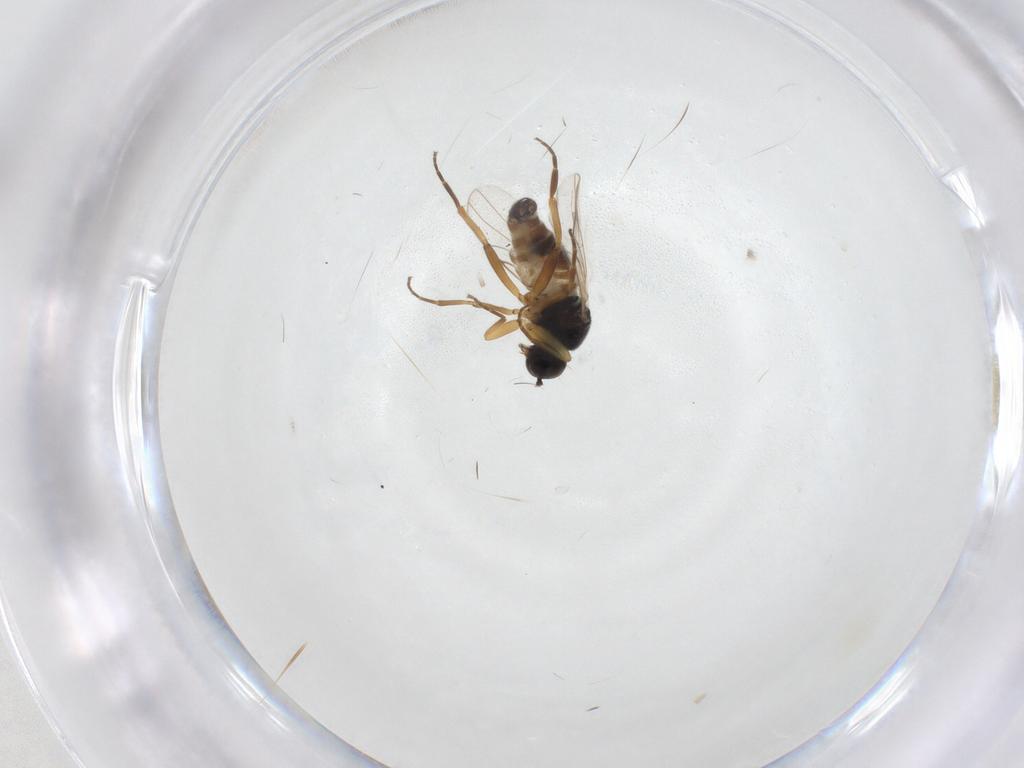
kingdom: Animalia
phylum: Arthropoda
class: Insecta
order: Diptera
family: Hybotidae
